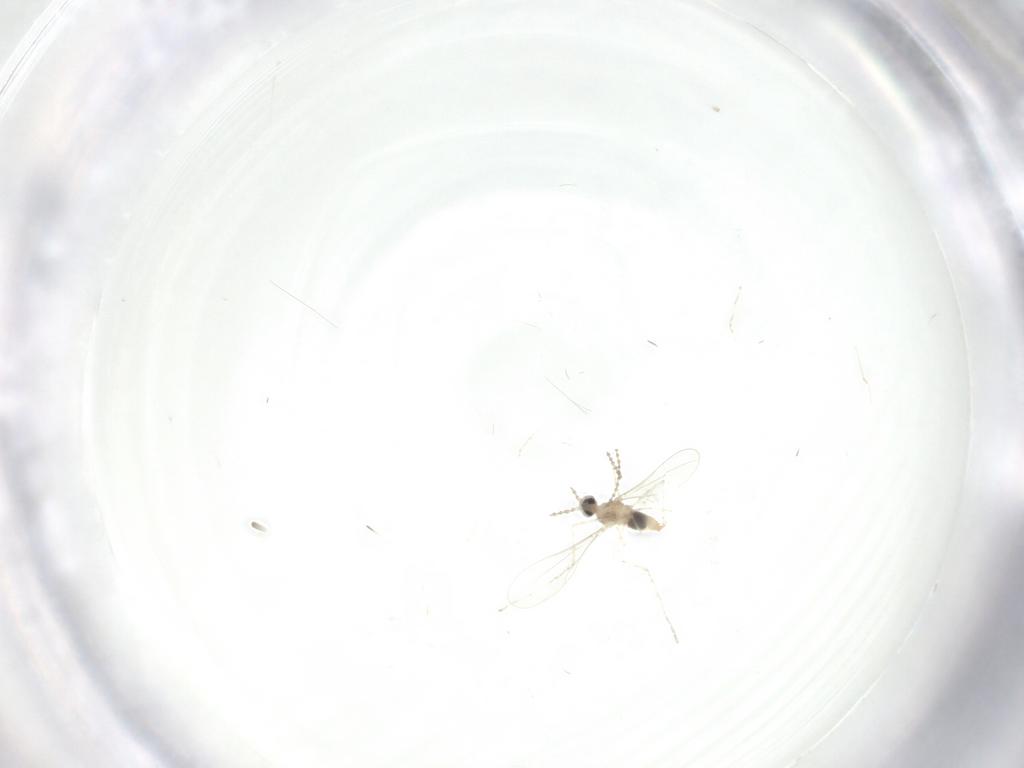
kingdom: Animalia
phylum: Arthropoda
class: Insecta
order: Diptera
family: Cecidomyiidae
